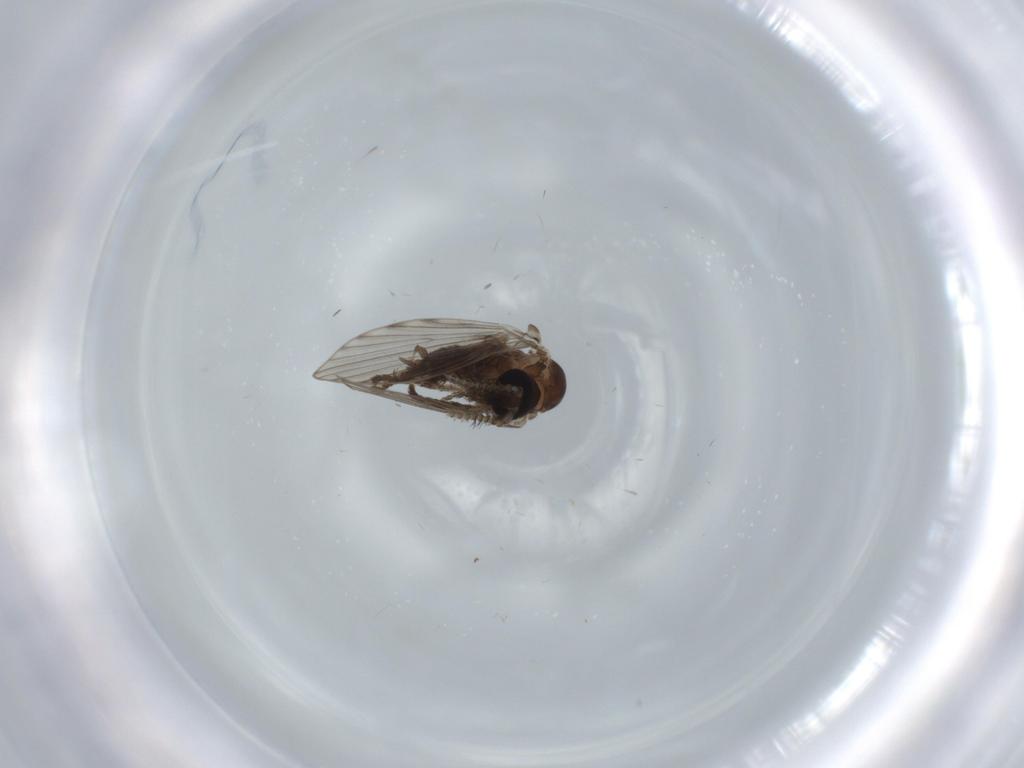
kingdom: Animalia
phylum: Arthropoda
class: Insecta
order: Diptera
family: Psychodidae
